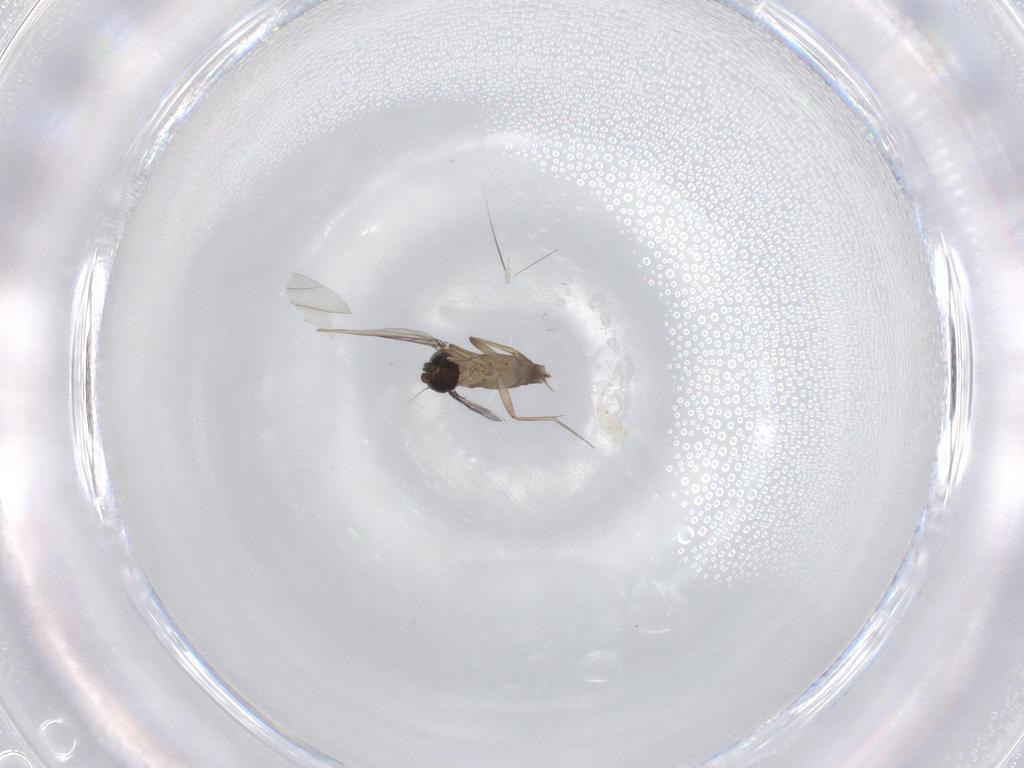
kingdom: Animalia
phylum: Arthropoda
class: Insecta
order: Diptera
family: Phoridae
